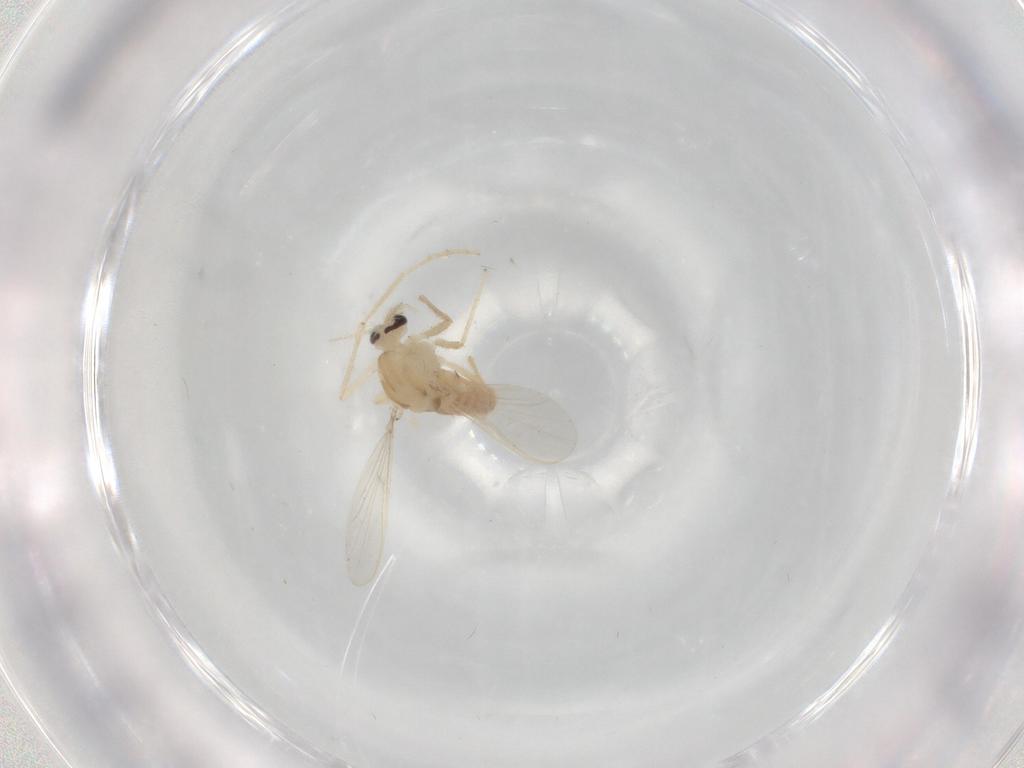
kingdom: Animalia
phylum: Arthropoda
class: Insecta
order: Diptera
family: Chironomidae
